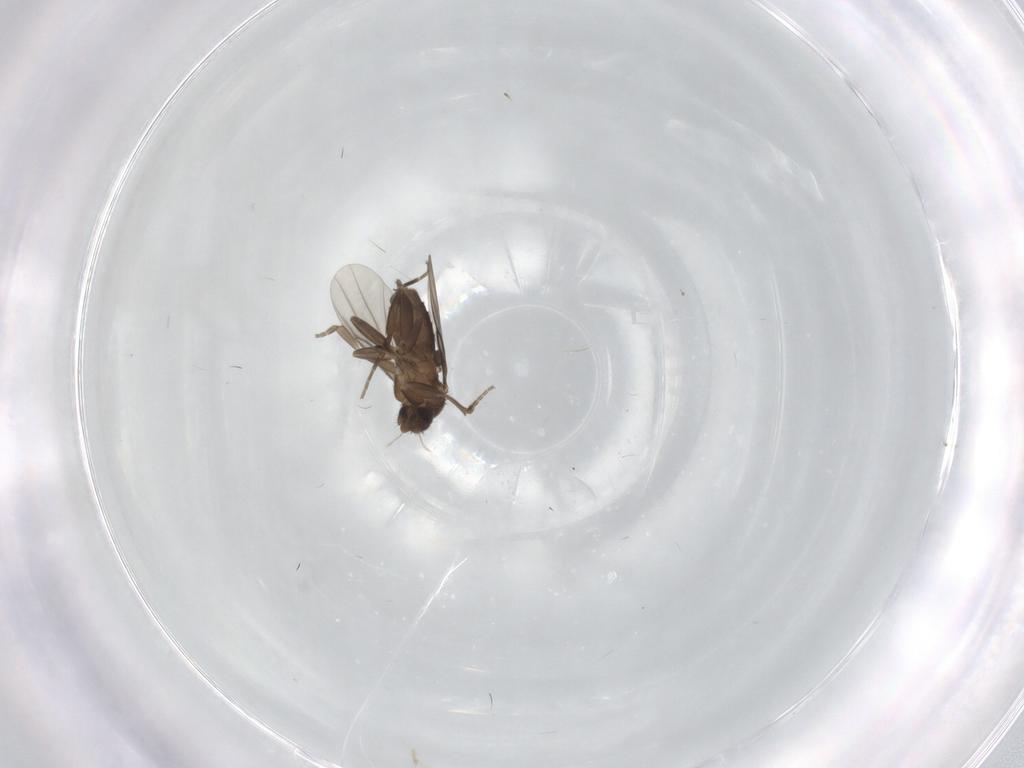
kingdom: Animalia
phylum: Arthropoda
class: Insecta
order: Diptera
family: Phoridae
